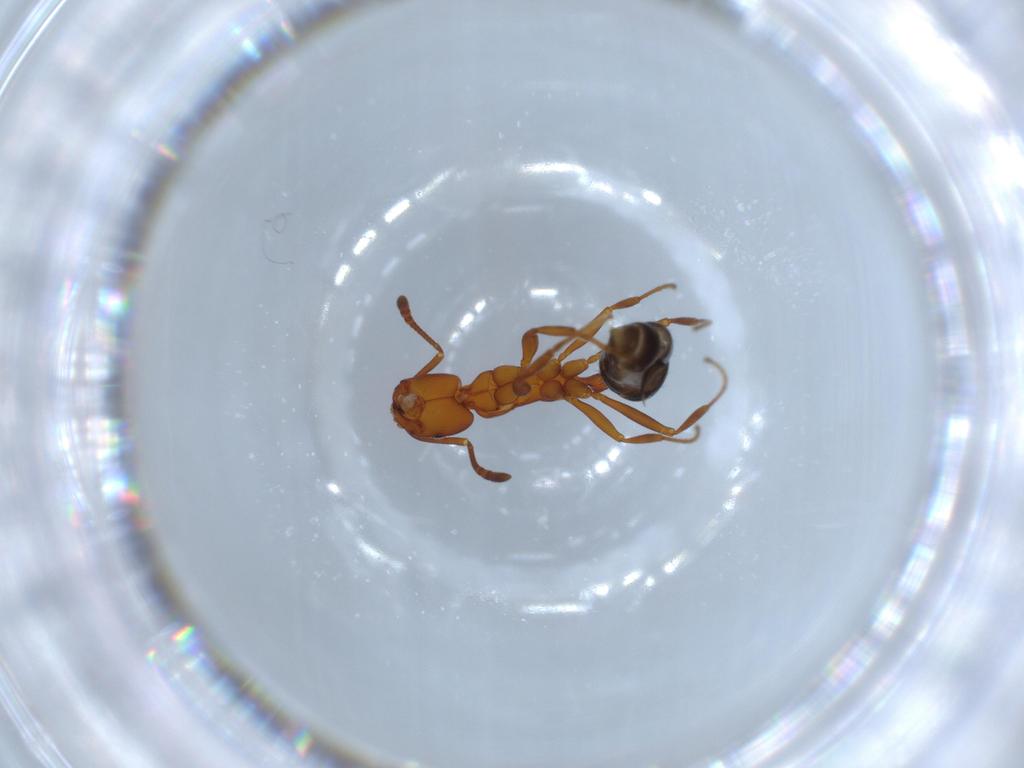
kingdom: Animalia
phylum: Arthropoda
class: Insecta
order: Hymenoptera
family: Formicidae
